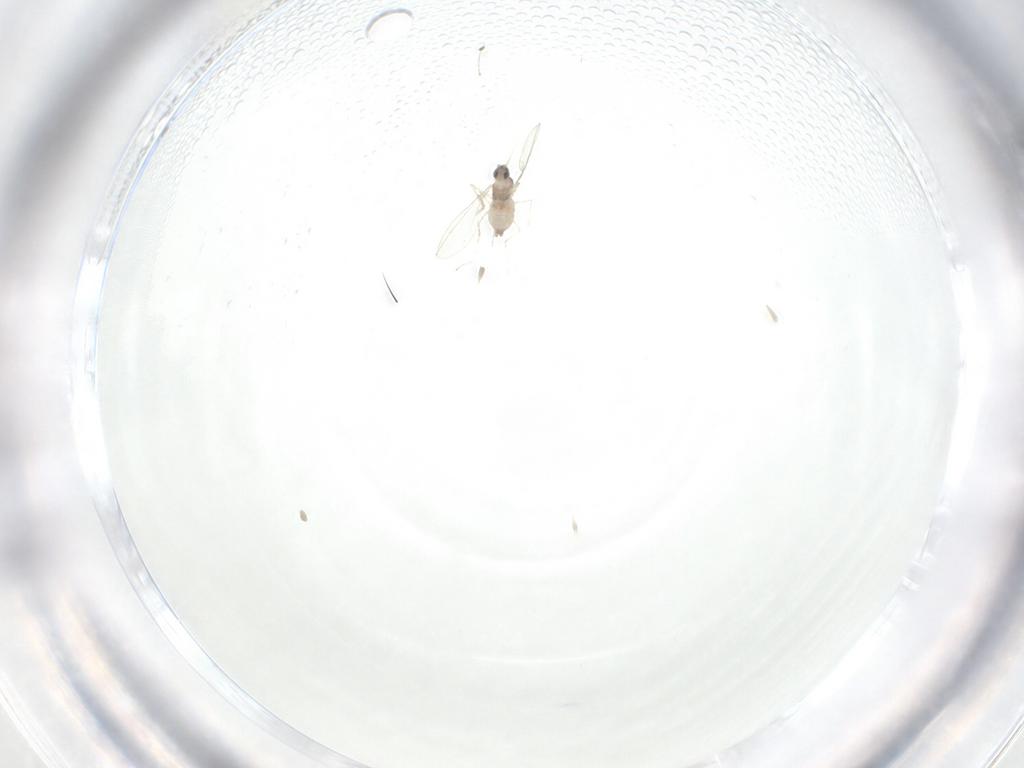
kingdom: Animalia
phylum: Arthropoda
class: Insecta
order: Diptera
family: Cecidomyiidae
